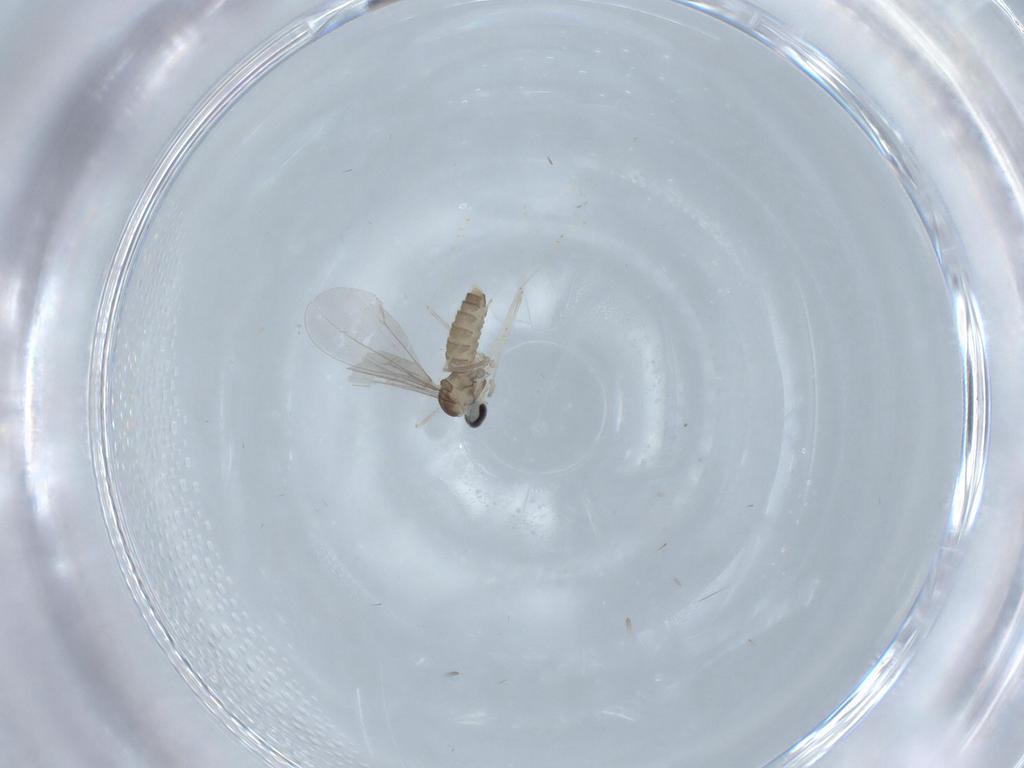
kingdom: Animalia
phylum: Arthropoda
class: Insecta
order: Diptera
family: Cecidomyiidae
